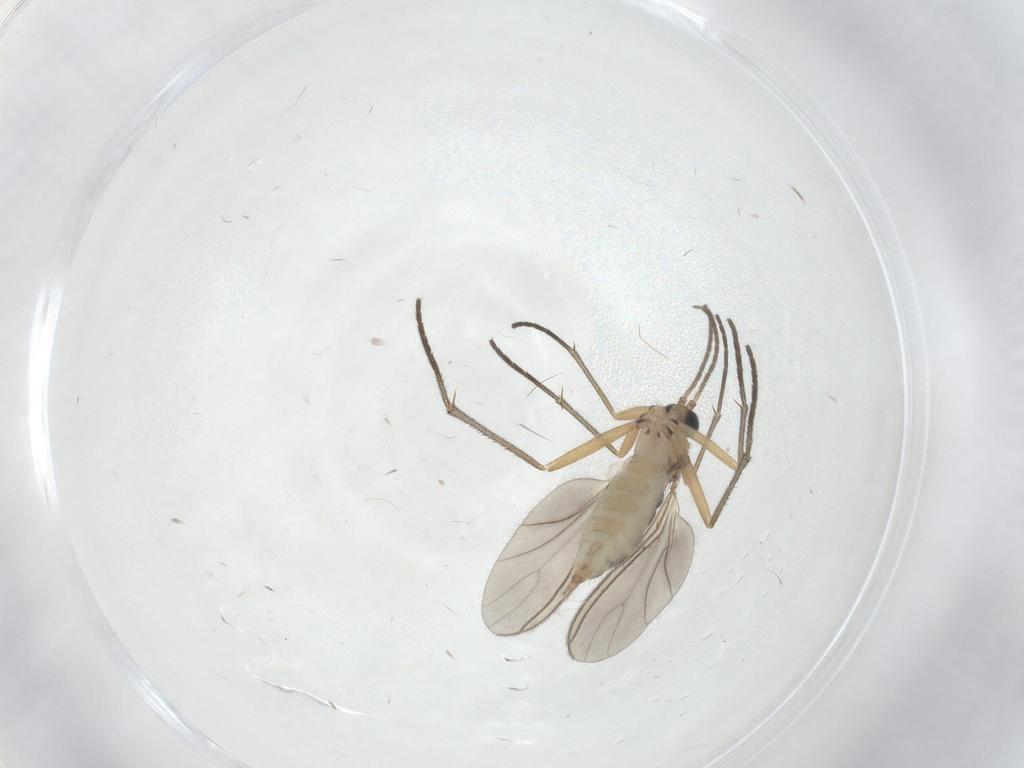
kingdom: Animalia
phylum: Arthropoda
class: Insecta
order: Diptera
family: Sciaridae
